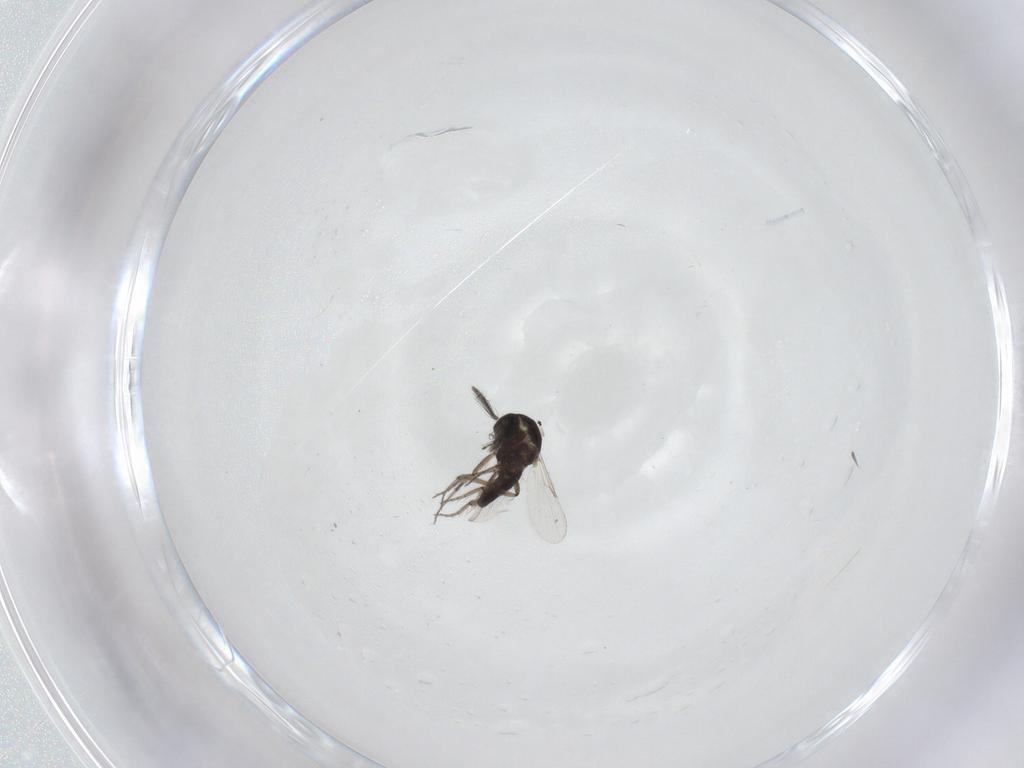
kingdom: Animalia
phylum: Arthropoda
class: Insecta
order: Diptera
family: Ceratopogonidae
